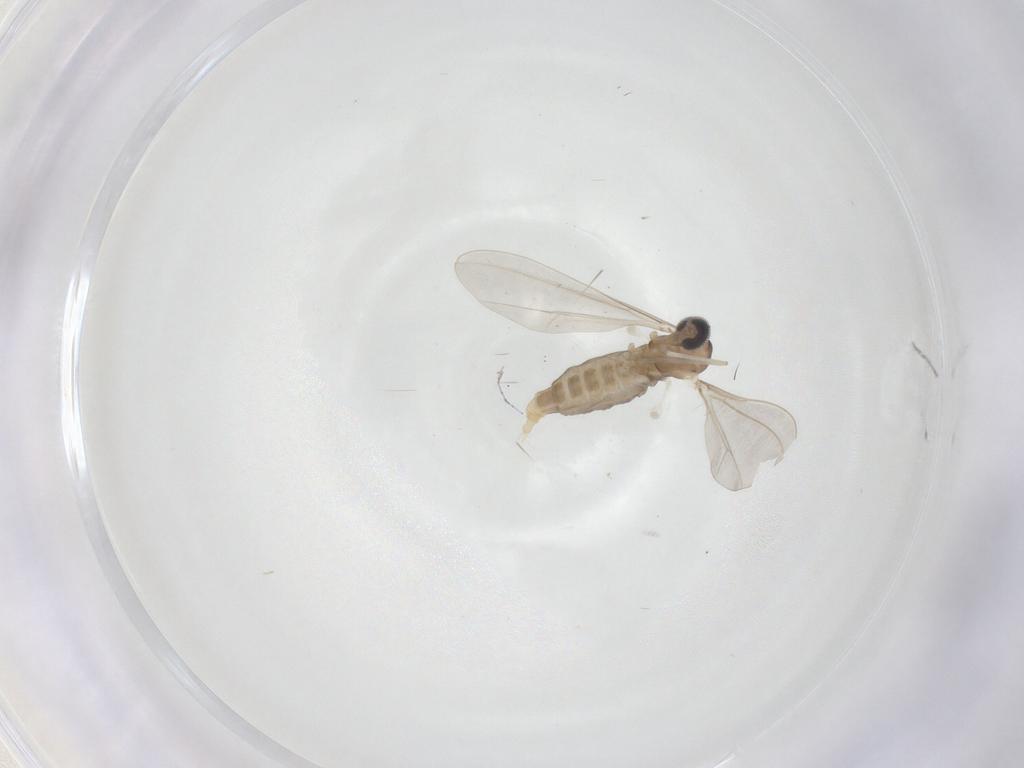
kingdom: Animalia
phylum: Arthropoda
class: Insecta
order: Diptera
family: Cecidomyiidae
